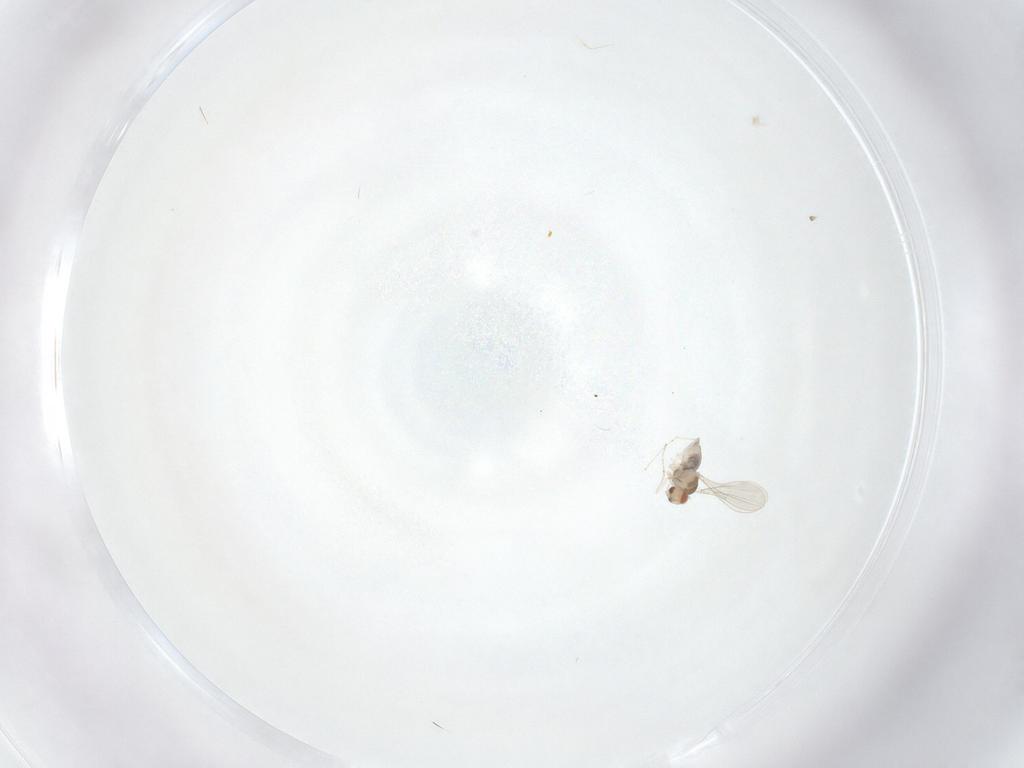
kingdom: Animalia
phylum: Arthropoda
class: Insecta
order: Diptera
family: Cecidomyiidae
